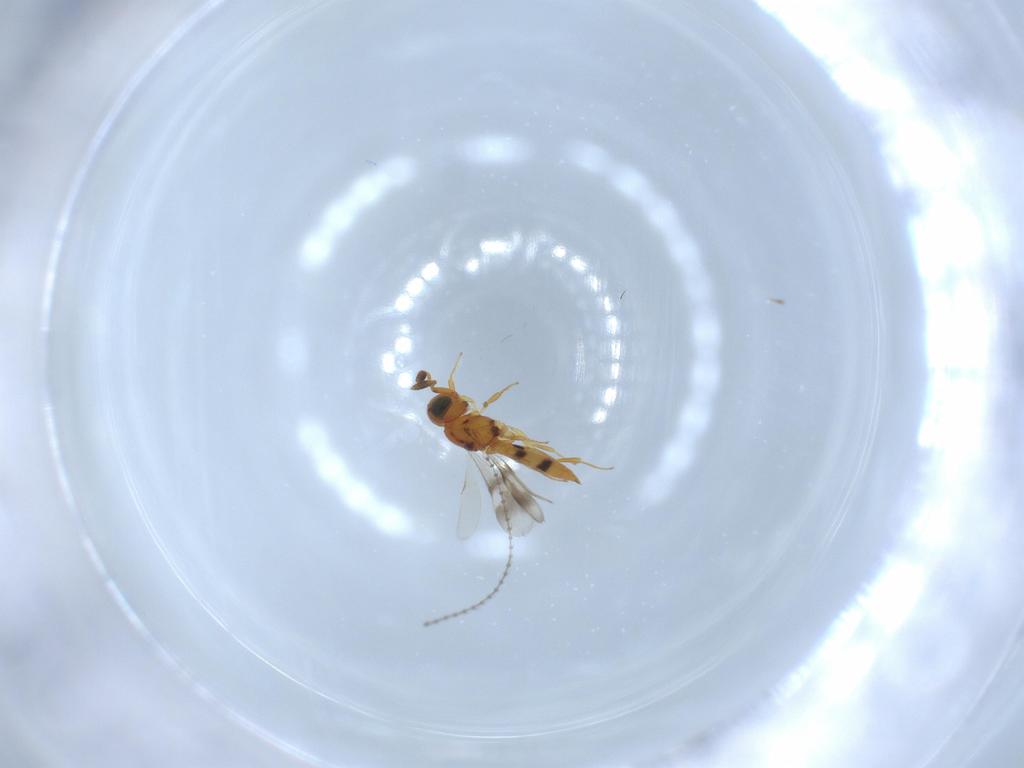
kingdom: Animalia
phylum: Arthropoda
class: Insecta
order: Hymenoptera
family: Scelionidae
